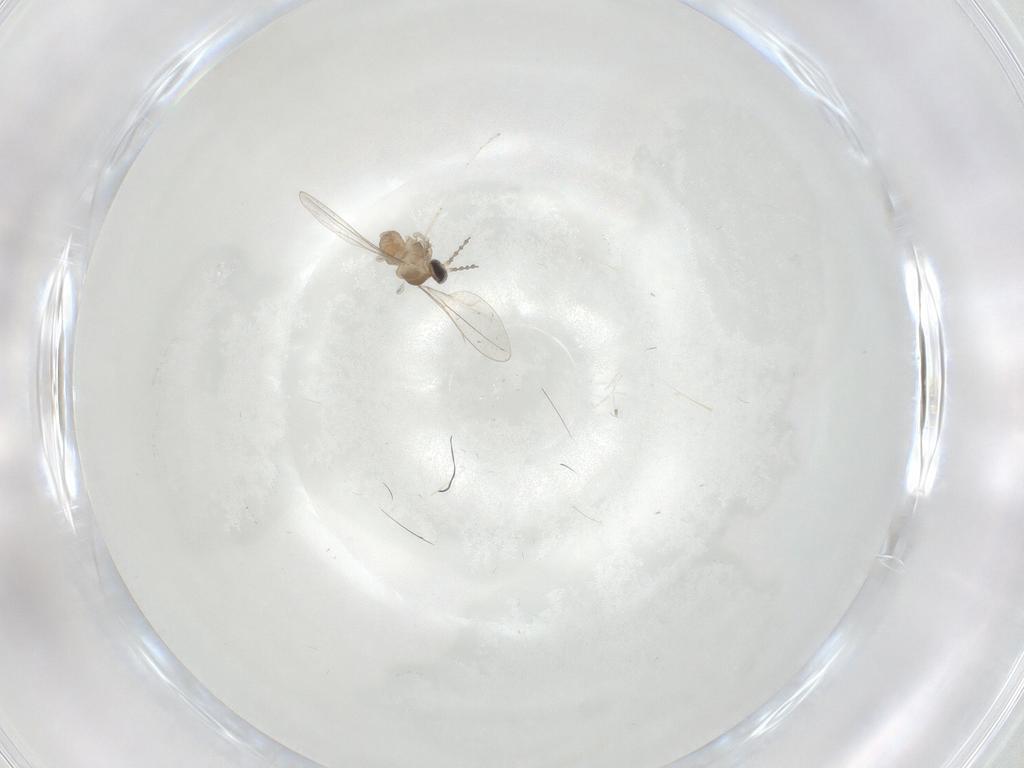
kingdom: Animalia
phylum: Arthropoda
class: Insecta
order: Diptera
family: Cecidomyiidae
